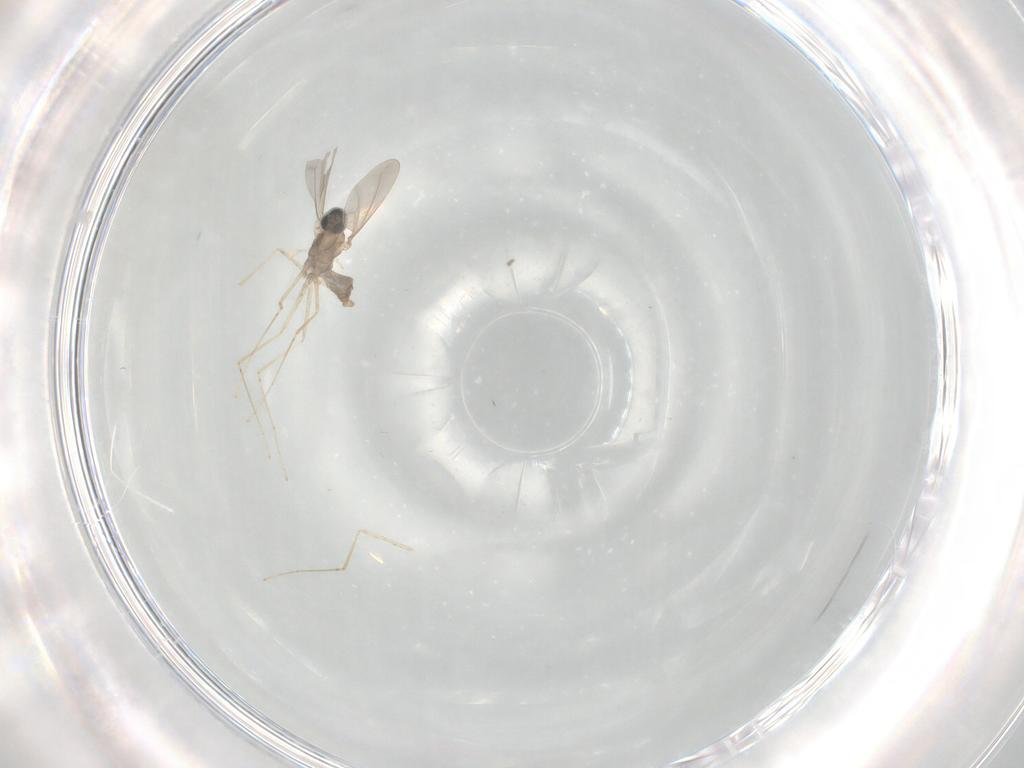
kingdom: Animalia
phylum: Arthropoda
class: Insecta
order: Diptera
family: Cecidomyiidae
